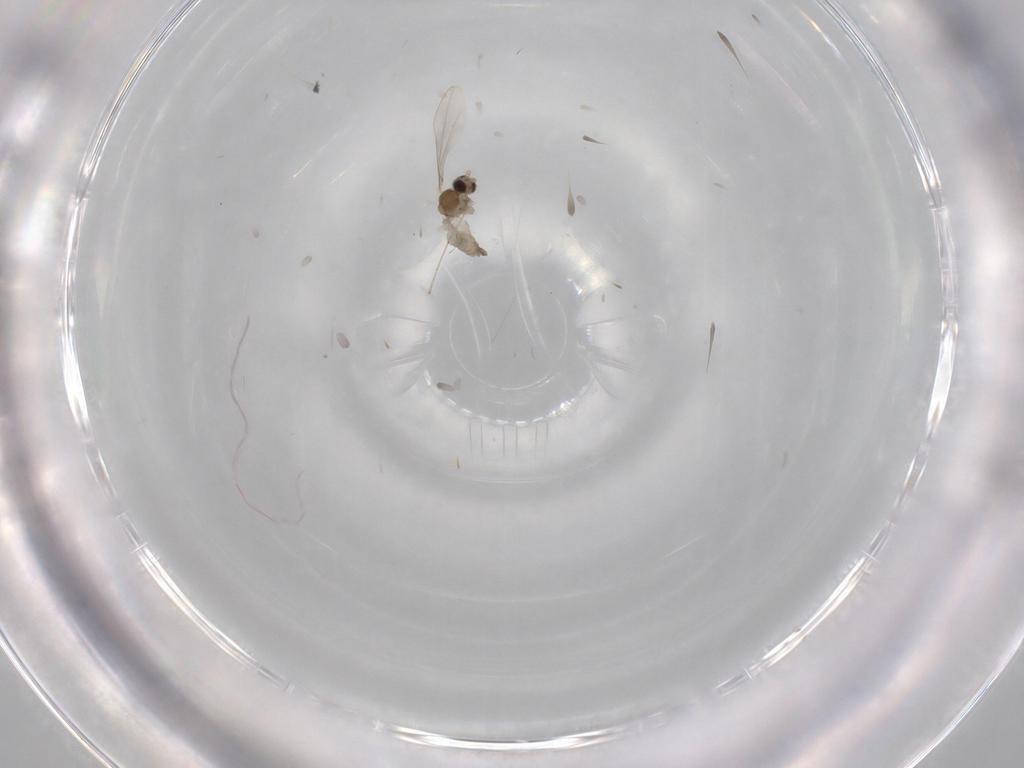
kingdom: Animalia
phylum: Arthropoda
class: Insecta
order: Diptera
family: Cecidomyiidae
